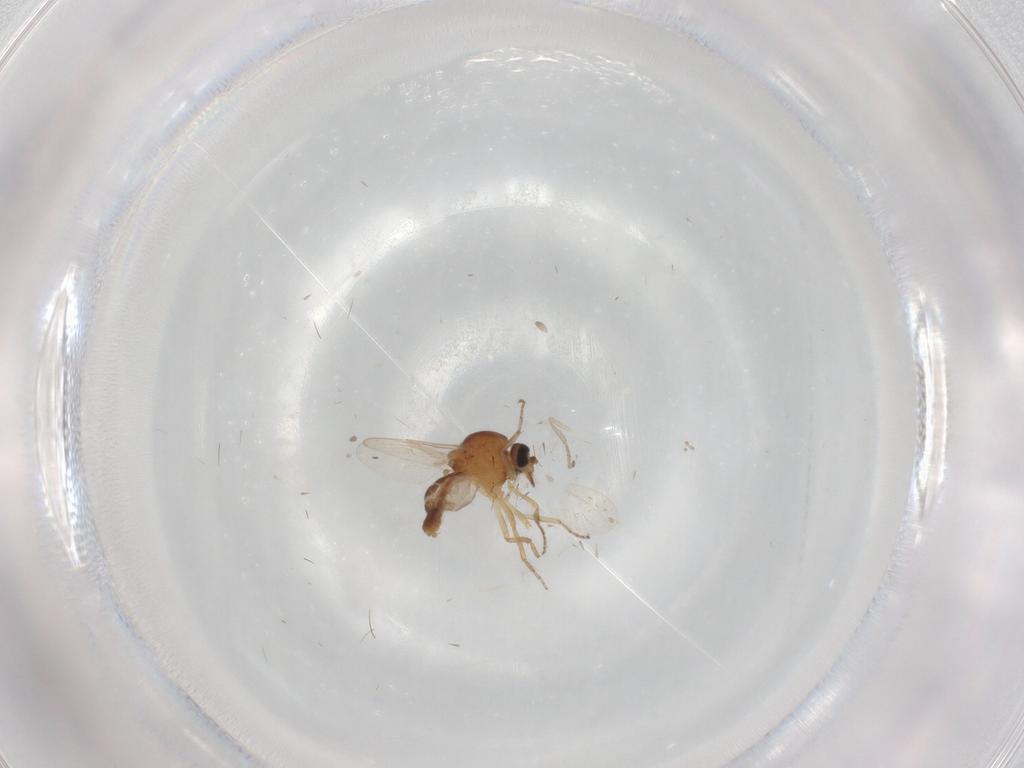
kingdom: Animalia
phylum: Arthropoda
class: Insecta
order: Diptera
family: Ceratopogonidae
